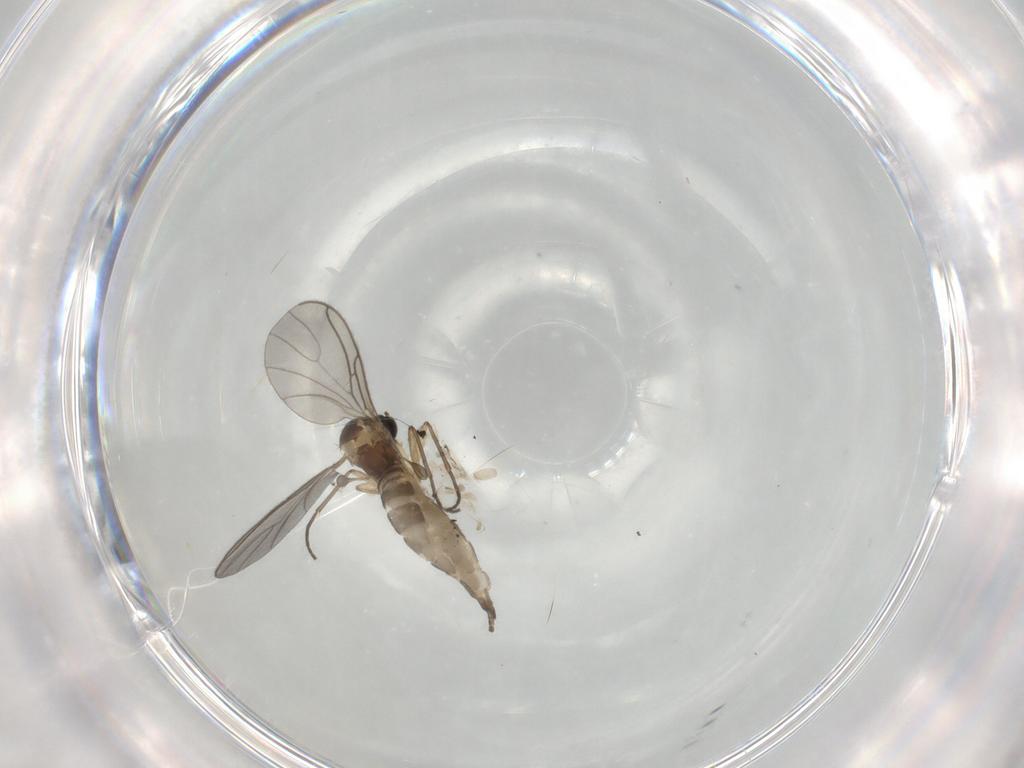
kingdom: Animalia
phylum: Arthropoda
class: Insecta
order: Diptera
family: Sciaridae
